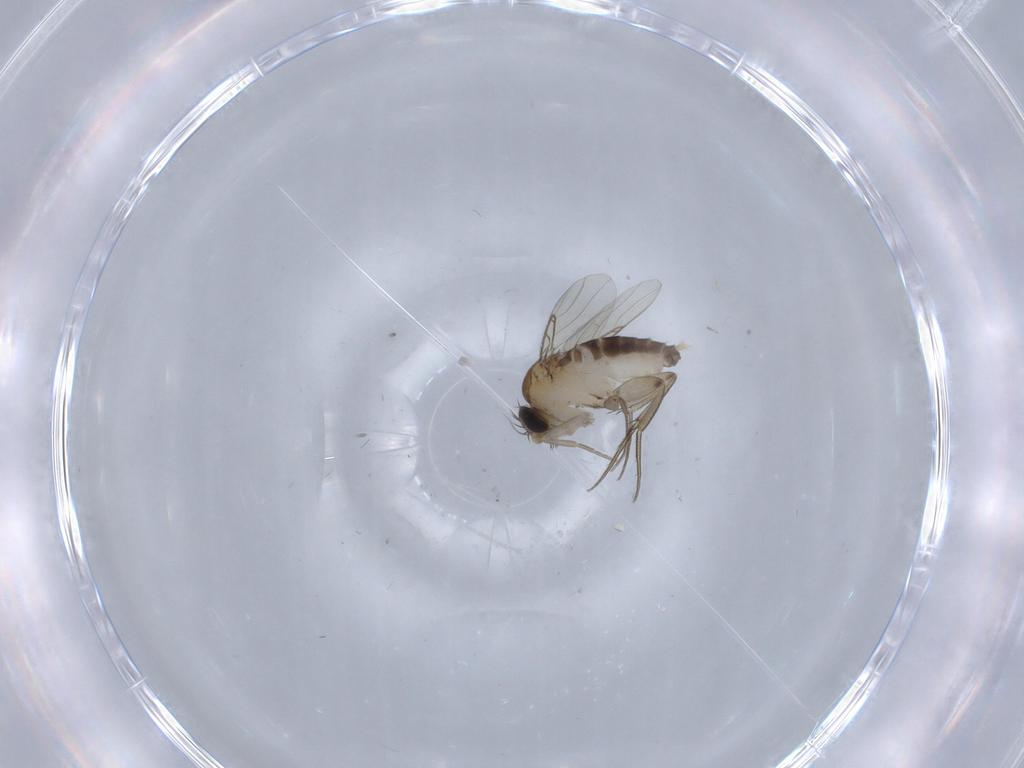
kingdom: Animalia
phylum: Arthropoda
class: Insecta
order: Diptera
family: Phoridae
